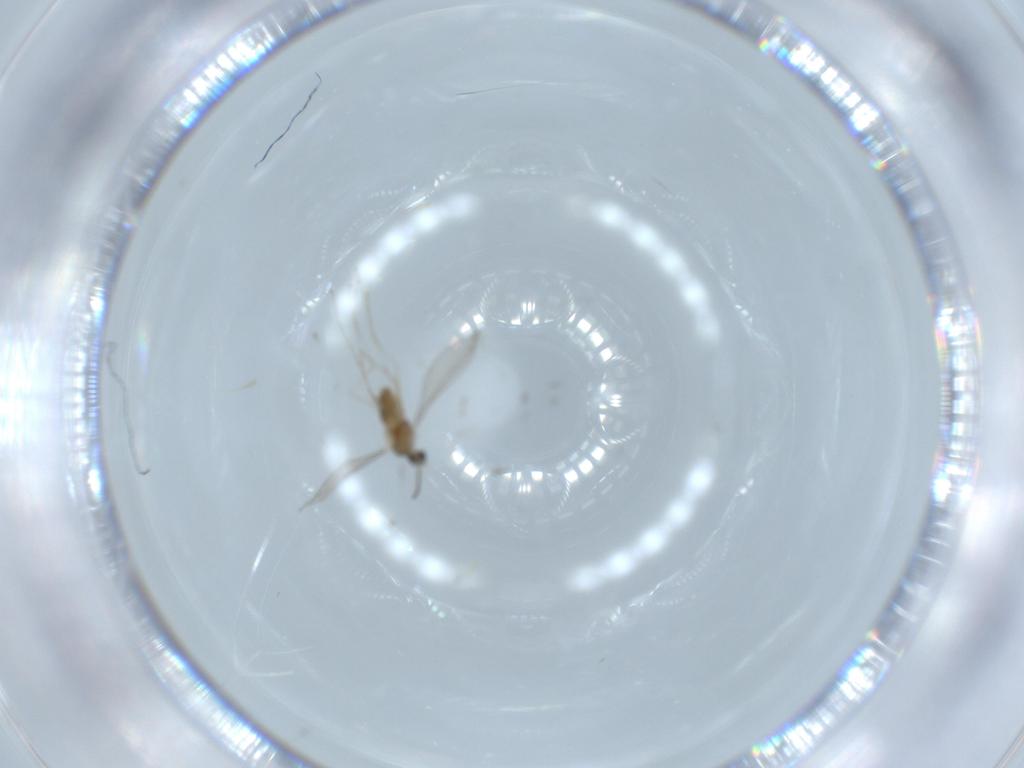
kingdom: Animalia
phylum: Arthropoda
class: Insecta
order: Diptera
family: Cecidomyiidae
